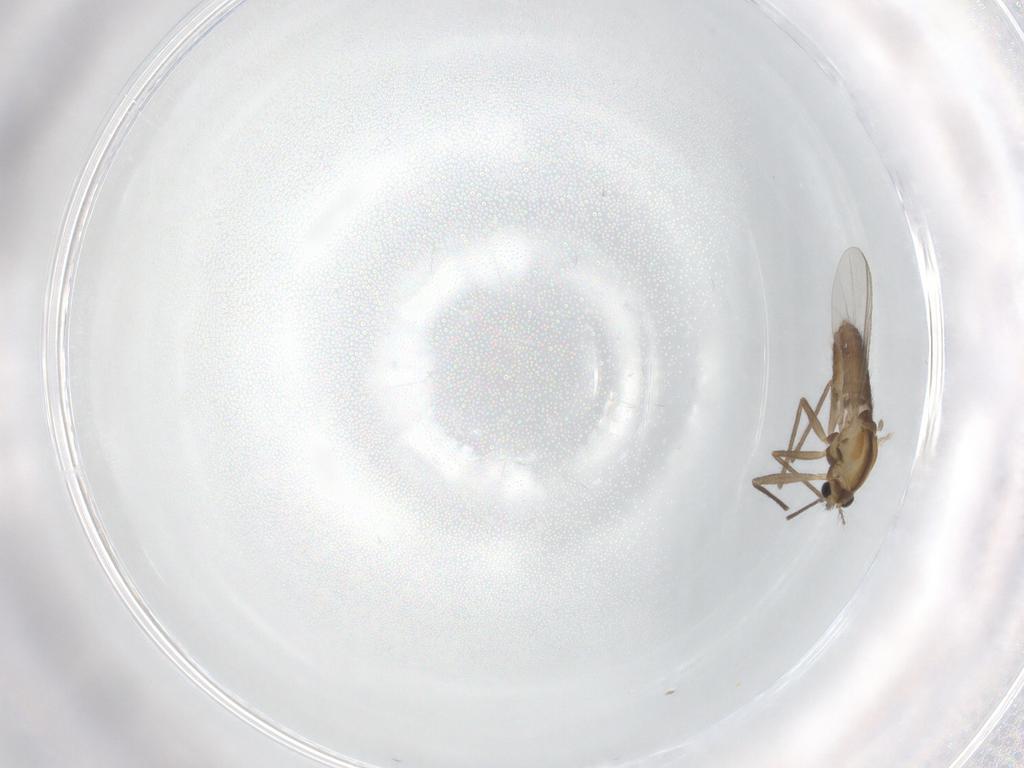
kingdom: Animalia
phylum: Arthropoda
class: Insecta
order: Diptera
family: Chironomidae
